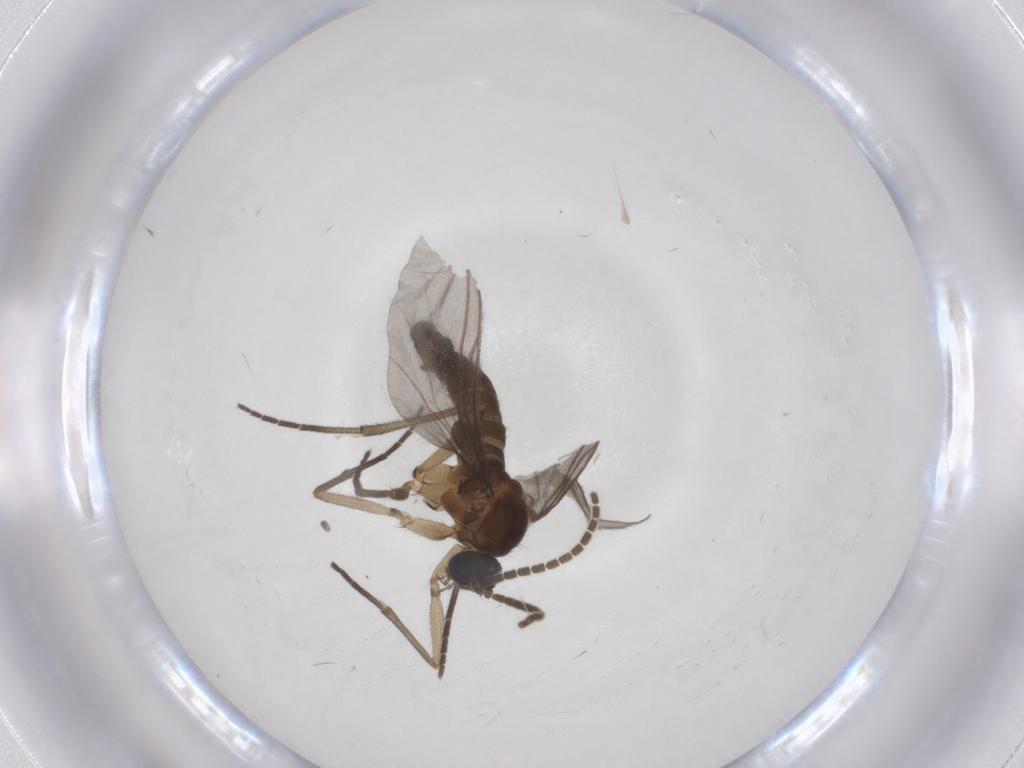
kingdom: Animalia
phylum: Arthropoda
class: Insecta
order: Diptera
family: Sciaridae
